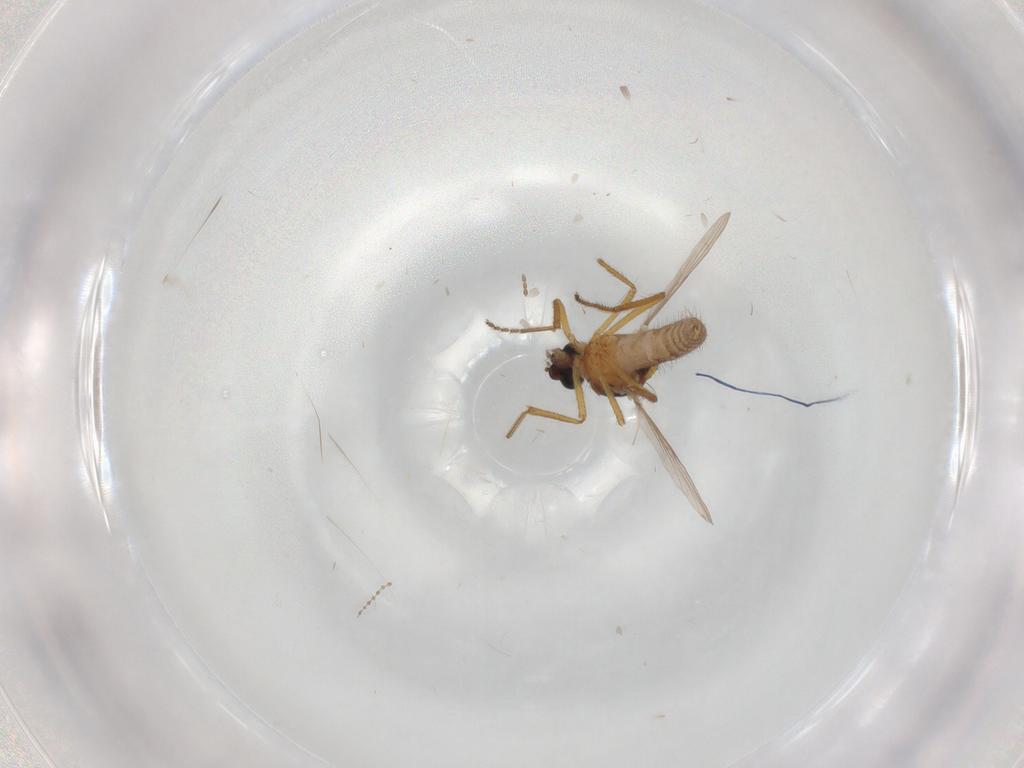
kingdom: Animalia
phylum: Arthropoda
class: Insecta
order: Diptera
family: Ceratopogonidae
